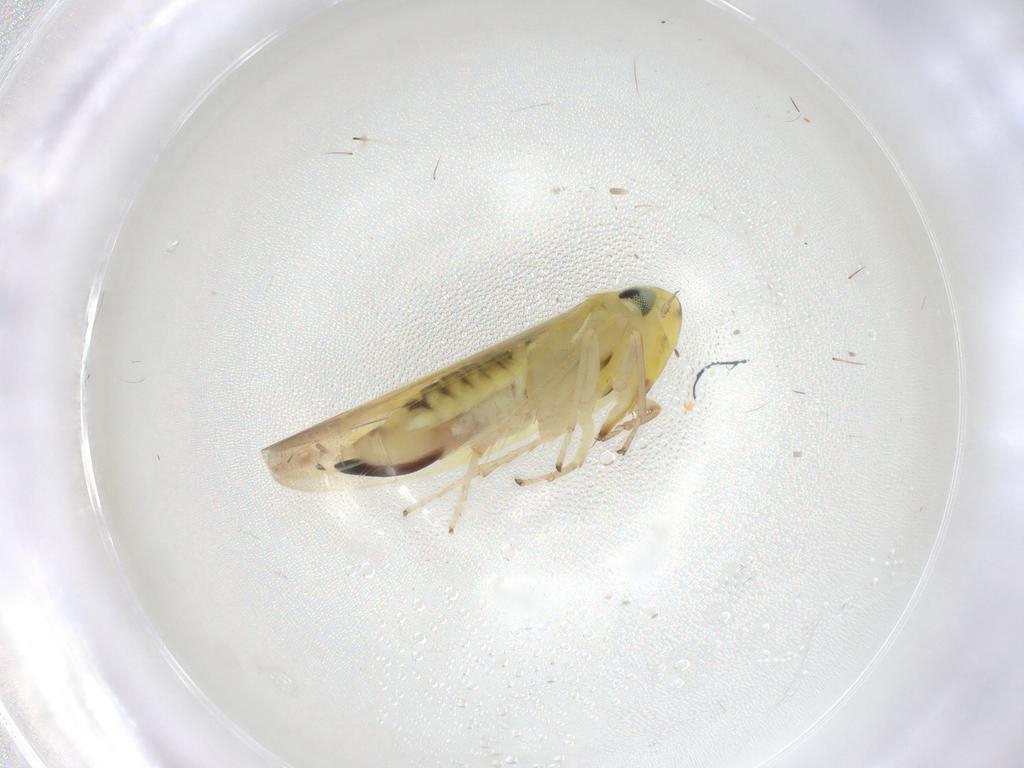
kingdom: Animalia
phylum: Arthropoda
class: Insecta
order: Hemiptera
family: Cicadellidae
